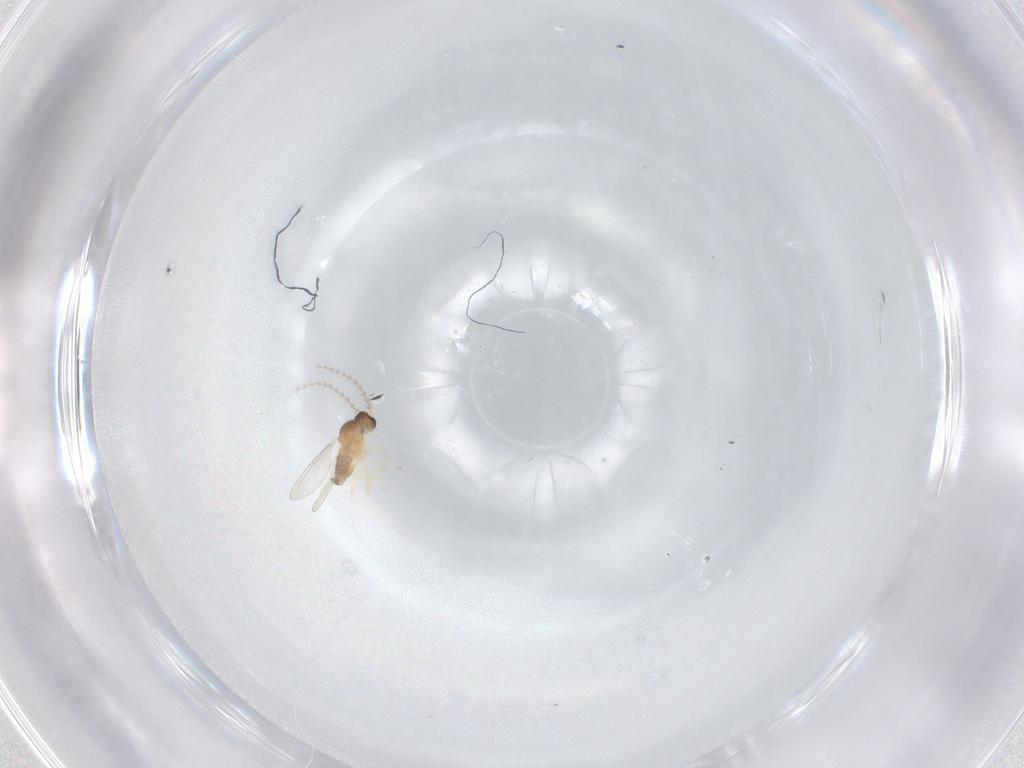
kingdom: Animalia
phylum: Arthropoda
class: Insecta
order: Diptera
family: Cecidomyiidae
